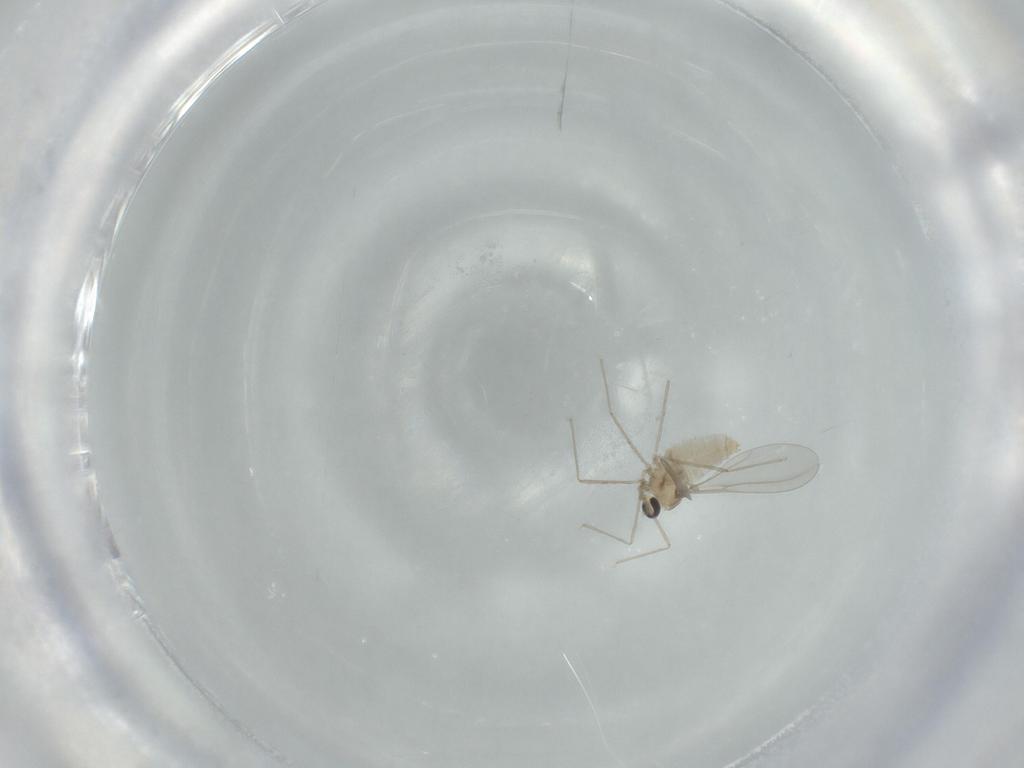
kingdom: Animalia
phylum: Arthropoda
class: Insecta
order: Diptera
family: Cecidomyiidae
